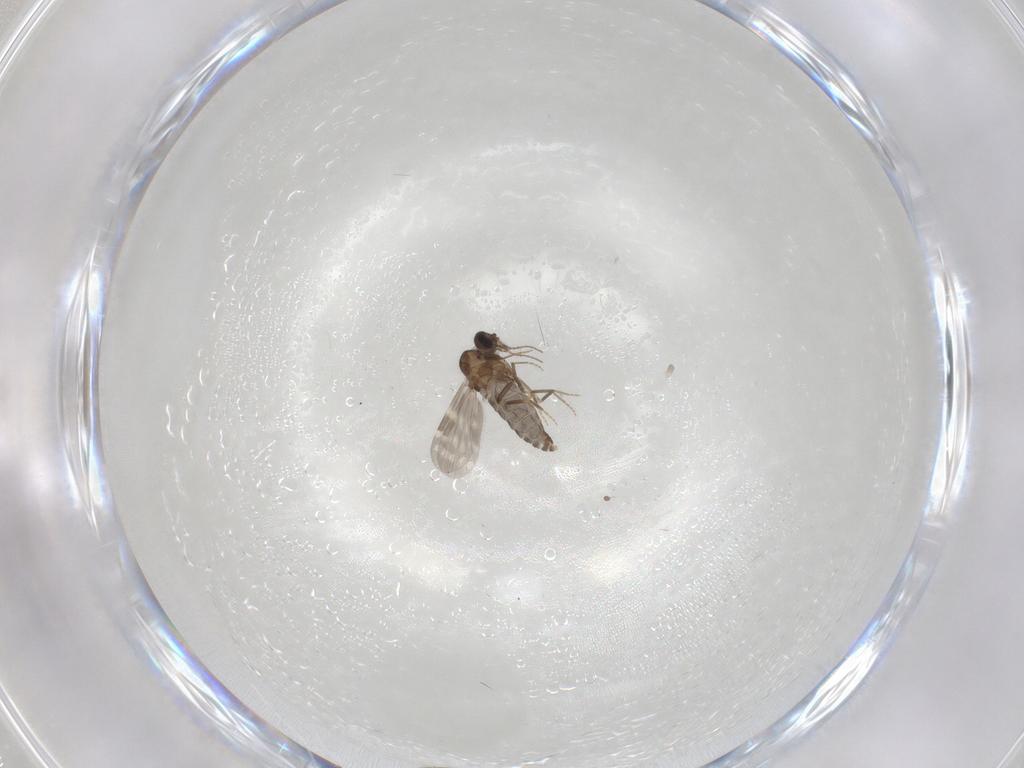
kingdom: Animalia
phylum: Arthropoda
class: Insecta
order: Diptera
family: Ceratopogonidae
